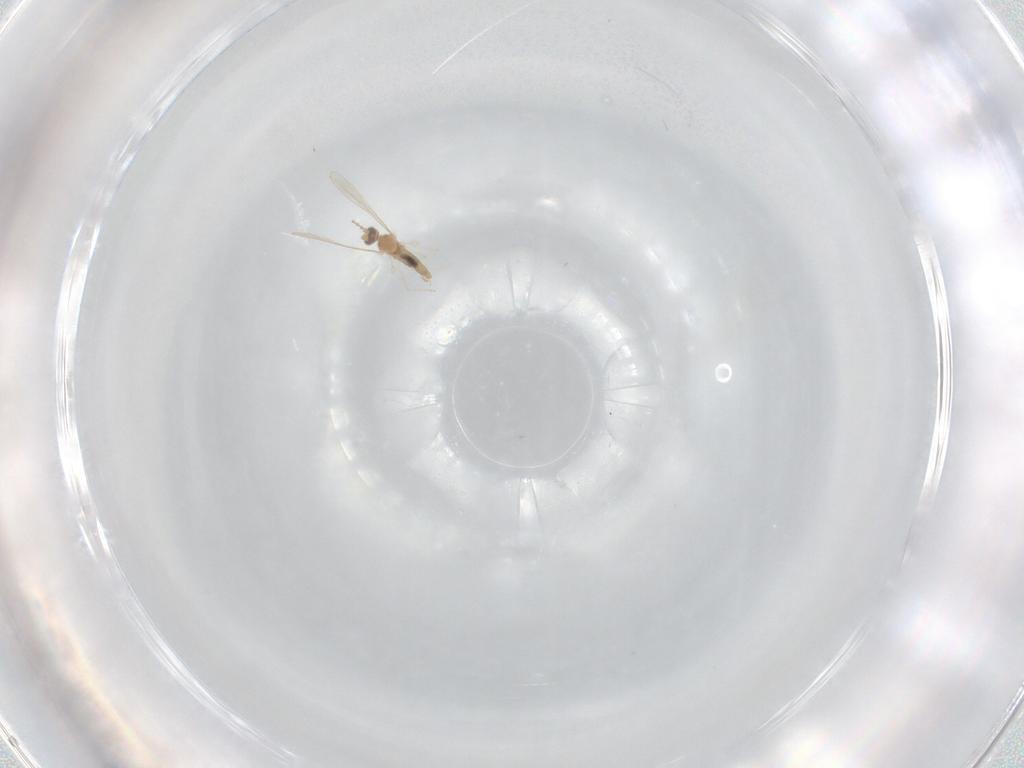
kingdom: Animalia
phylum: Arthropoda
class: Insecta
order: Diptera
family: Cecidomyiidae
